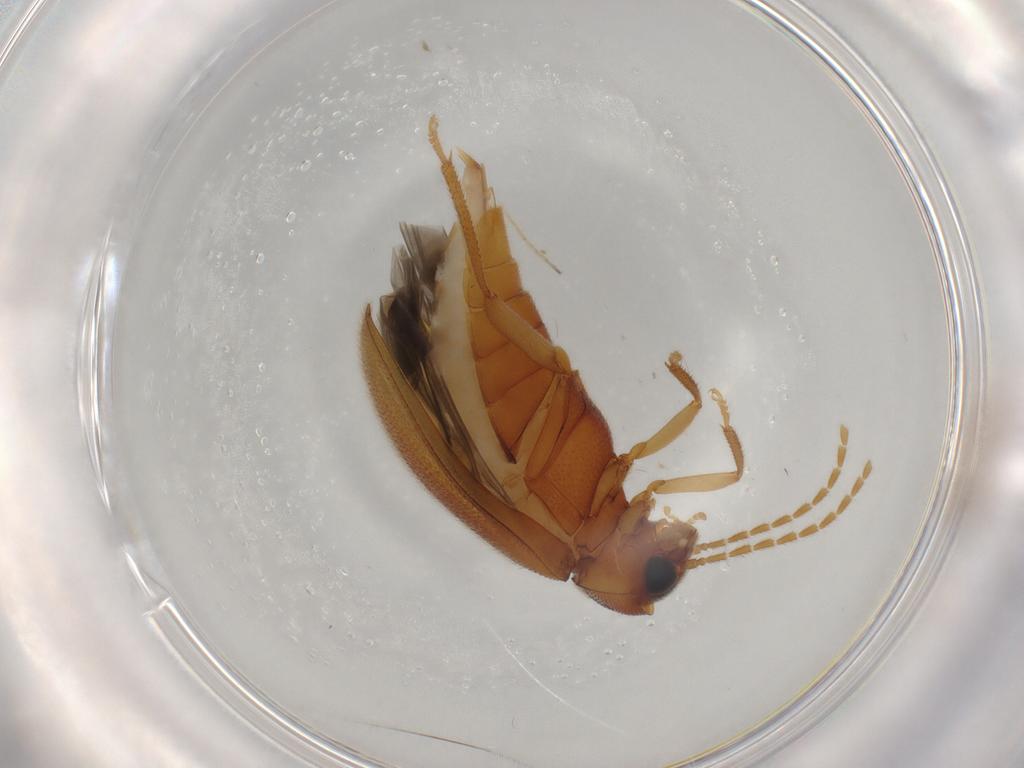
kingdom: Animalia
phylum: Arthropoda
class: Insecta
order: Coleoptera
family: Ptilodactylidae
